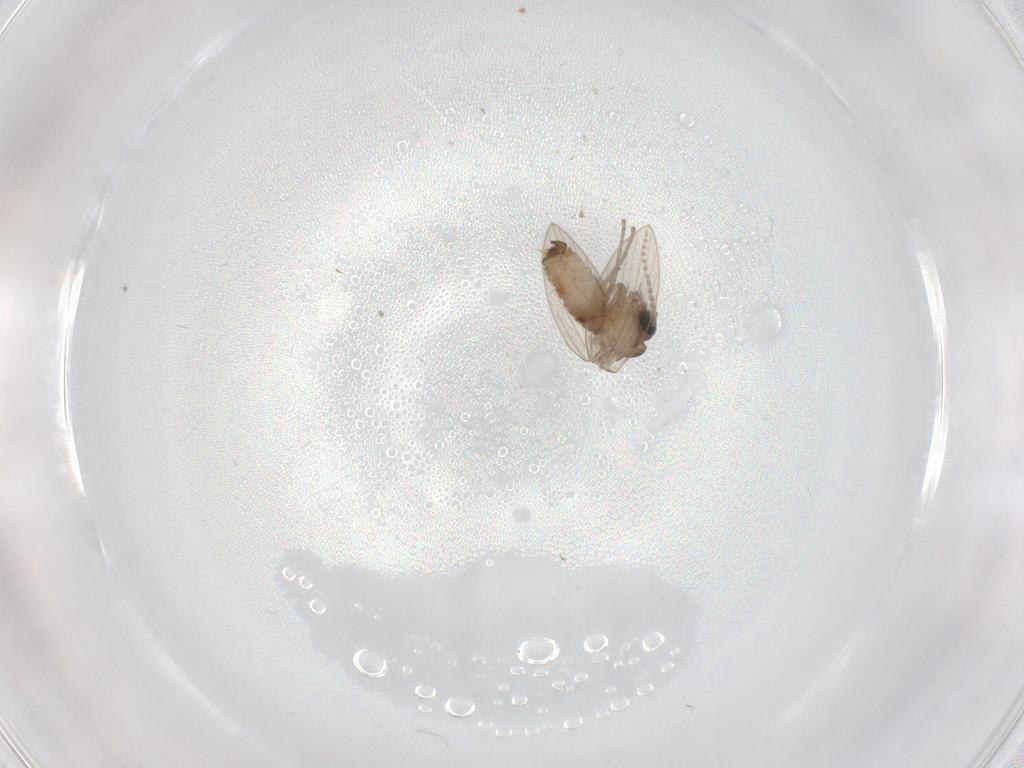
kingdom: Animalia
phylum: Arthropoda
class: Insecta
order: Diptera
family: Psychodidae
